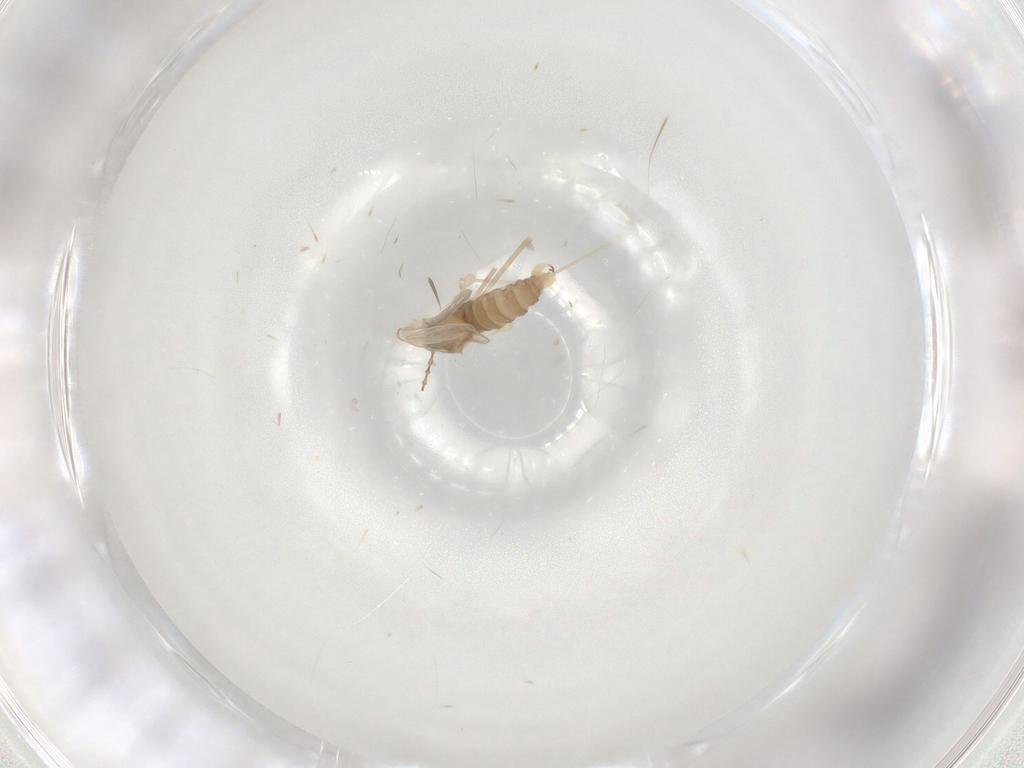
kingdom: Animalia
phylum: Arthropoda
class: Insecta
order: Diptera
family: Cecidomyiidae
